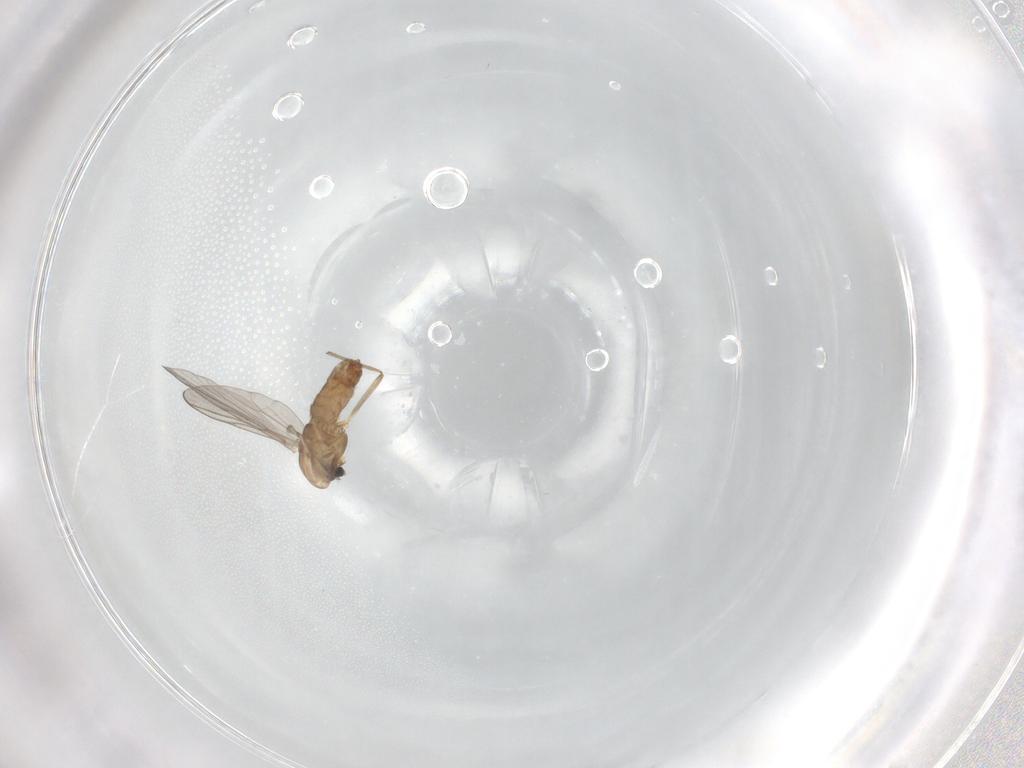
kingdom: Animalia
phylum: Arthropoda
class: Insecta
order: Diptera
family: Chironomidae
